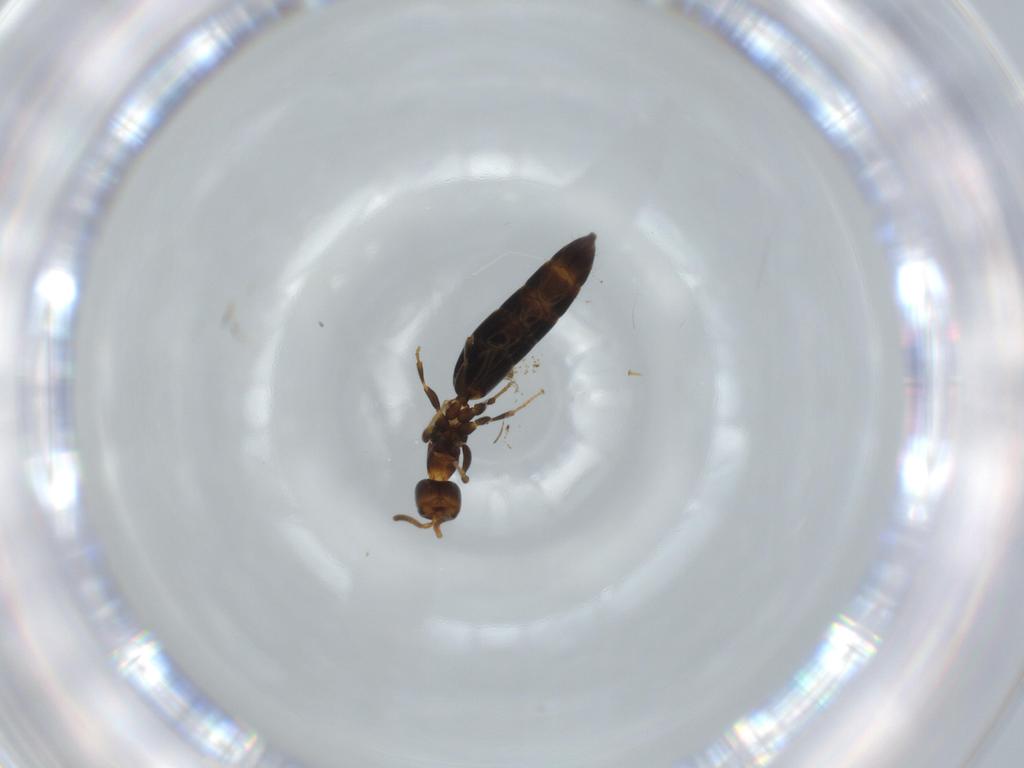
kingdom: Animalia
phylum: Arthropoda
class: Insecta
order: Hymenoptera
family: Bethylidae
